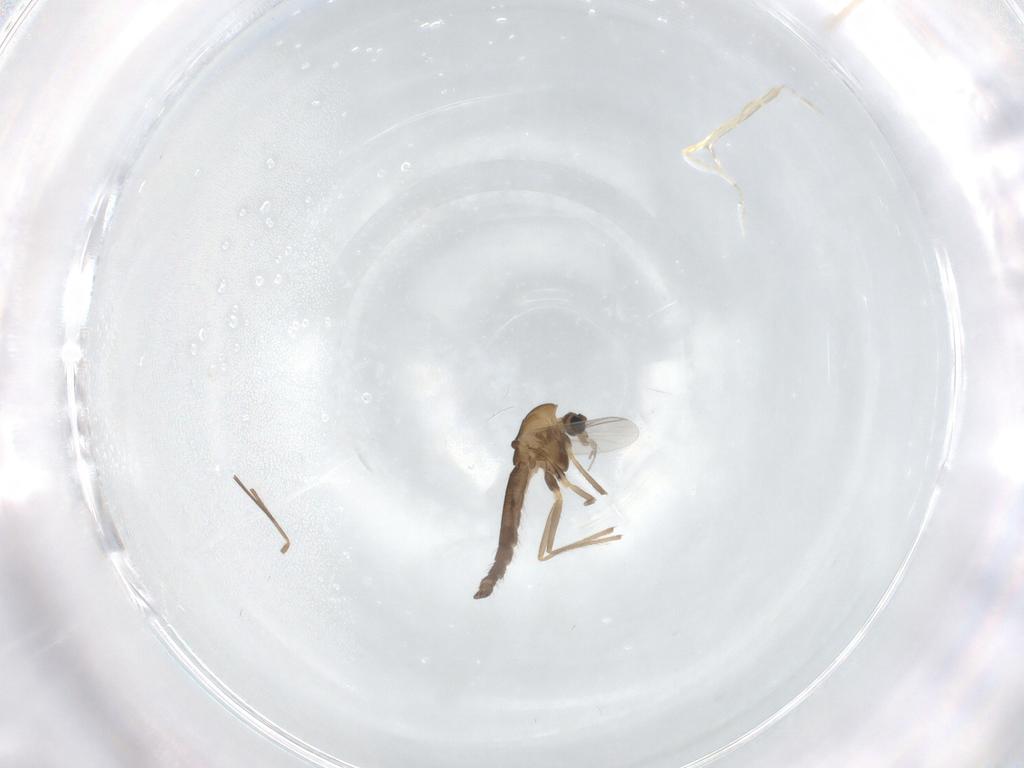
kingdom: Animalia
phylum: Arthropoda
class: Insecta
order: Diptera
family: Chironomidae
